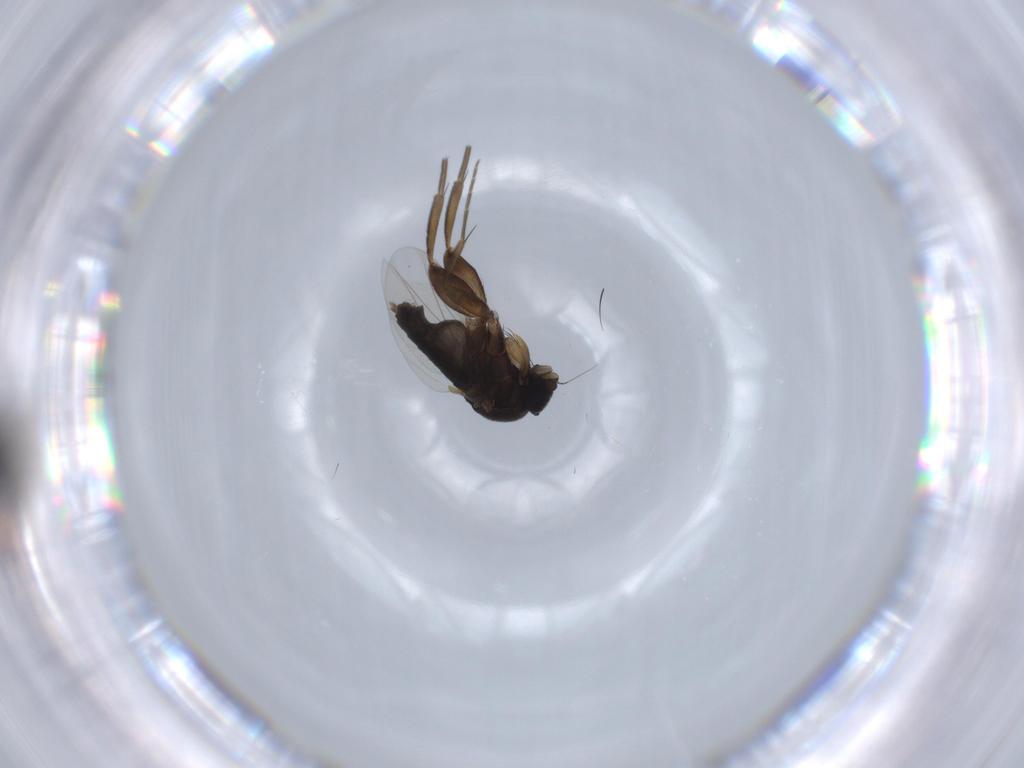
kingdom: Animalia
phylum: Arthropoda
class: Insecta
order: Diptera
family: Phoridae
